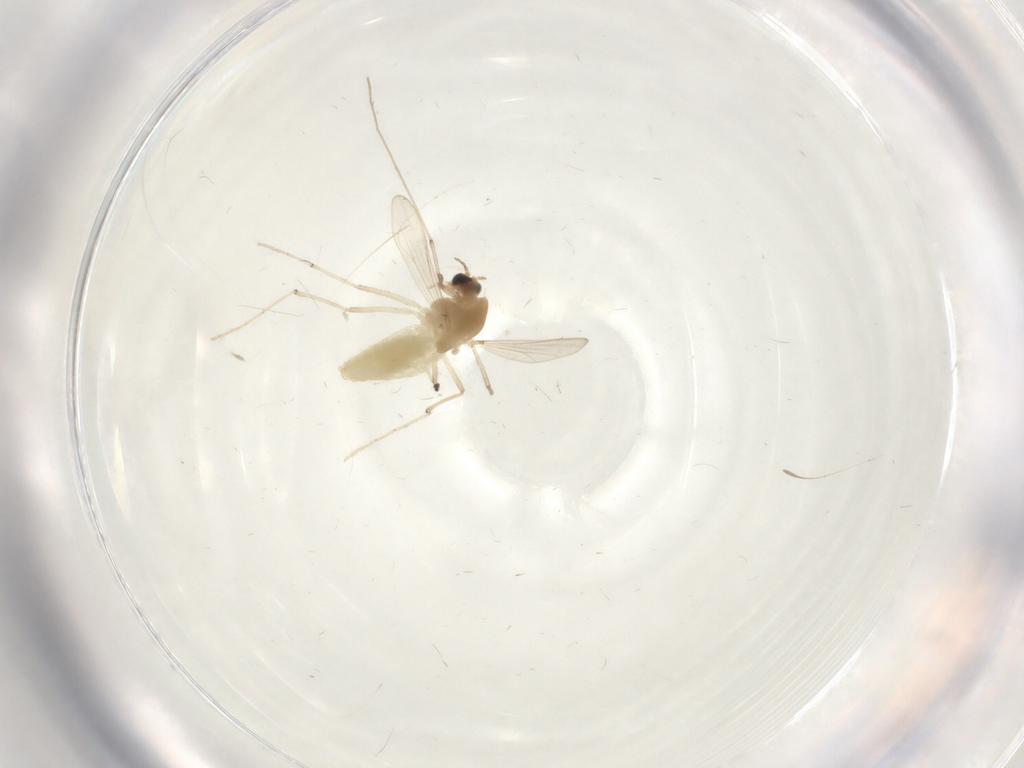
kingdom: Animalia
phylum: Arthropoda
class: Insecta
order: Diptera
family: Chironomidae
